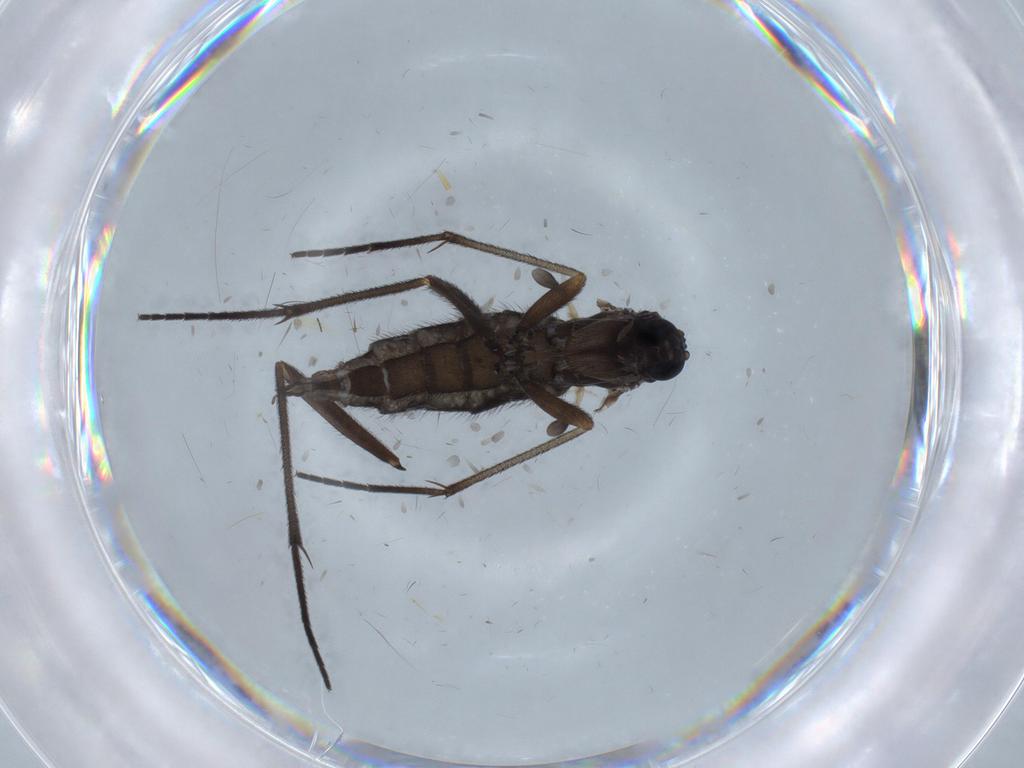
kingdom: Animalia
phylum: Arthropoda
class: Insecta
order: Diptera
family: Sciaridae
